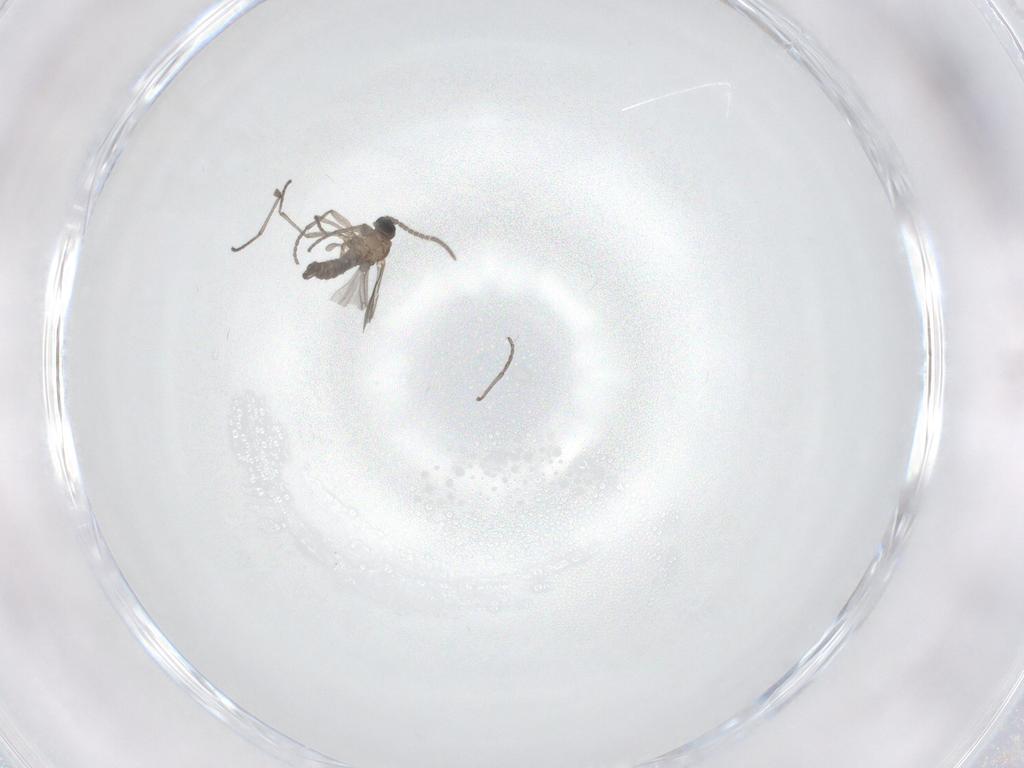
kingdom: Animalia
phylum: Arthropoda
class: Insecta
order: Diptera
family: Sciaridae
